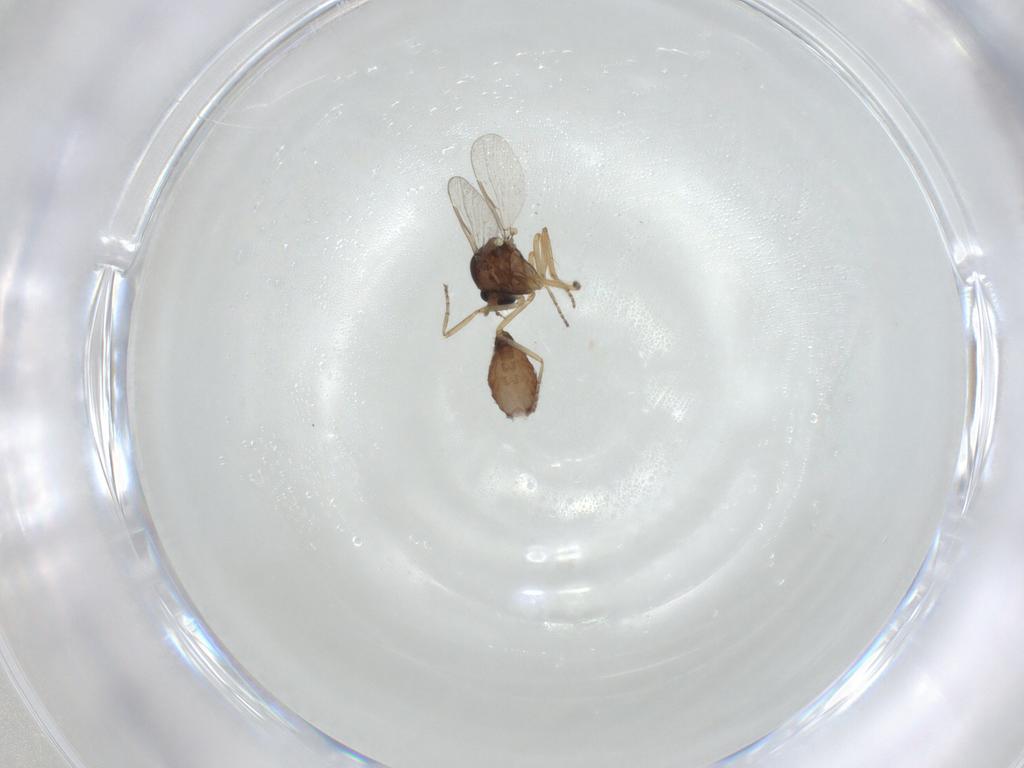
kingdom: Animalia
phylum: Arthropoda
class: Insecta
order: Diptera
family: Ceratopogonidae
